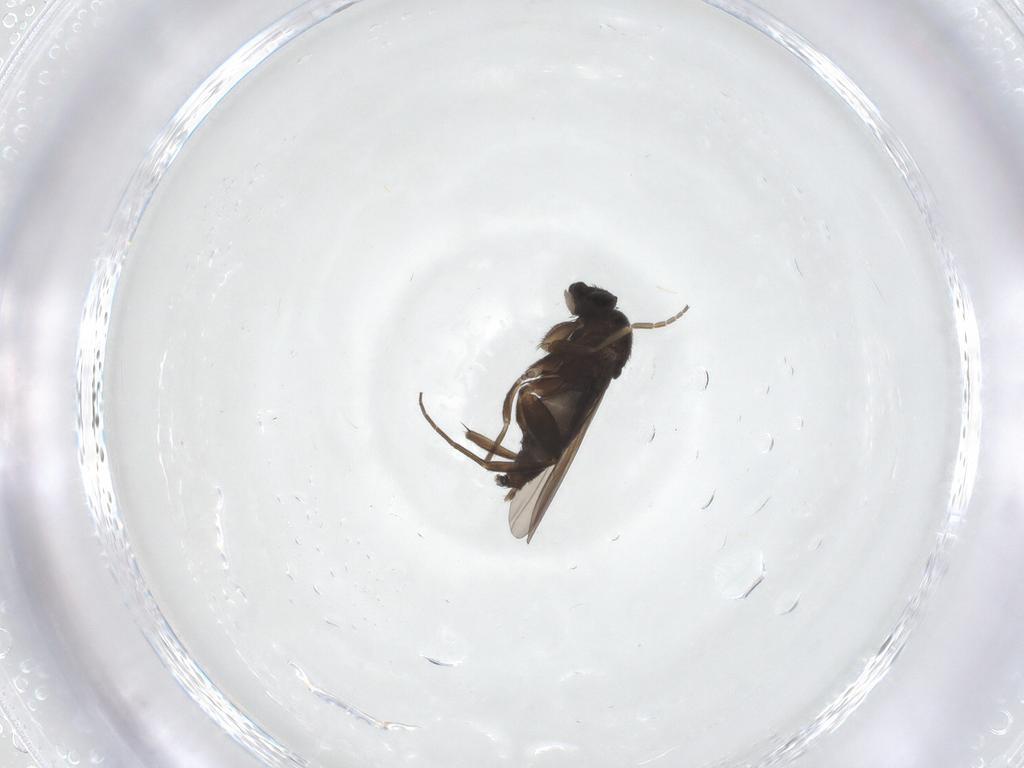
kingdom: Animalia
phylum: Arthropoda
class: Insecta
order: Diptera
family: Phoridae
